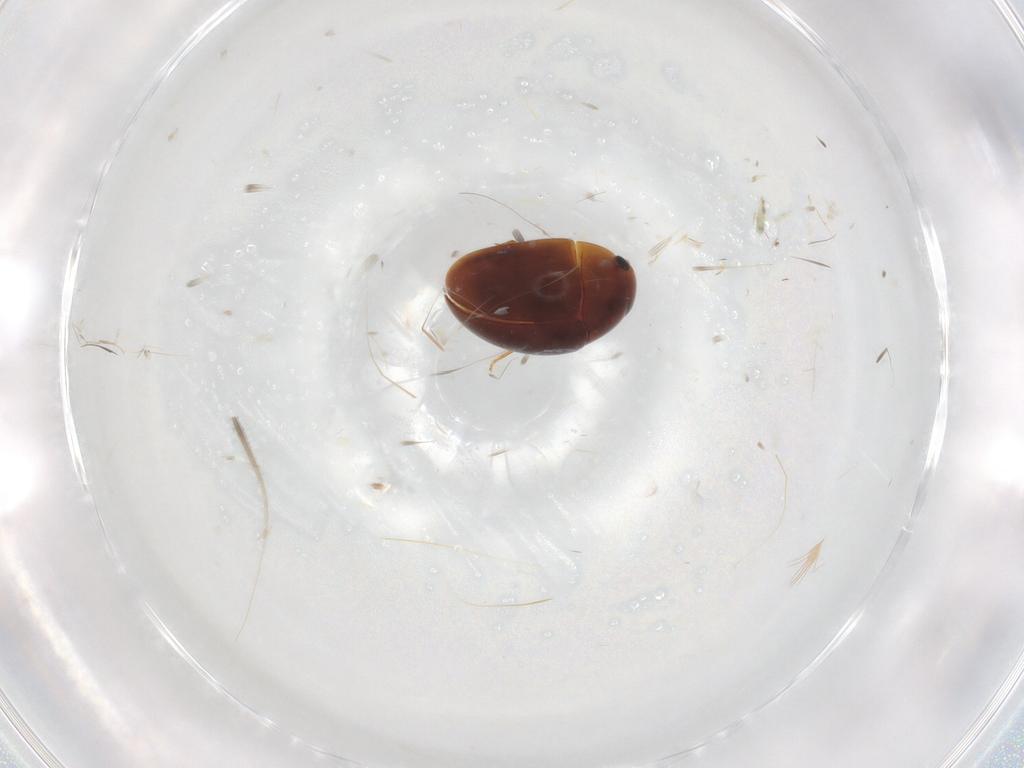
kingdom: Animalia
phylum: Arthropoda
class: Insecta
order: Coleoptera
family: Phalacridae
